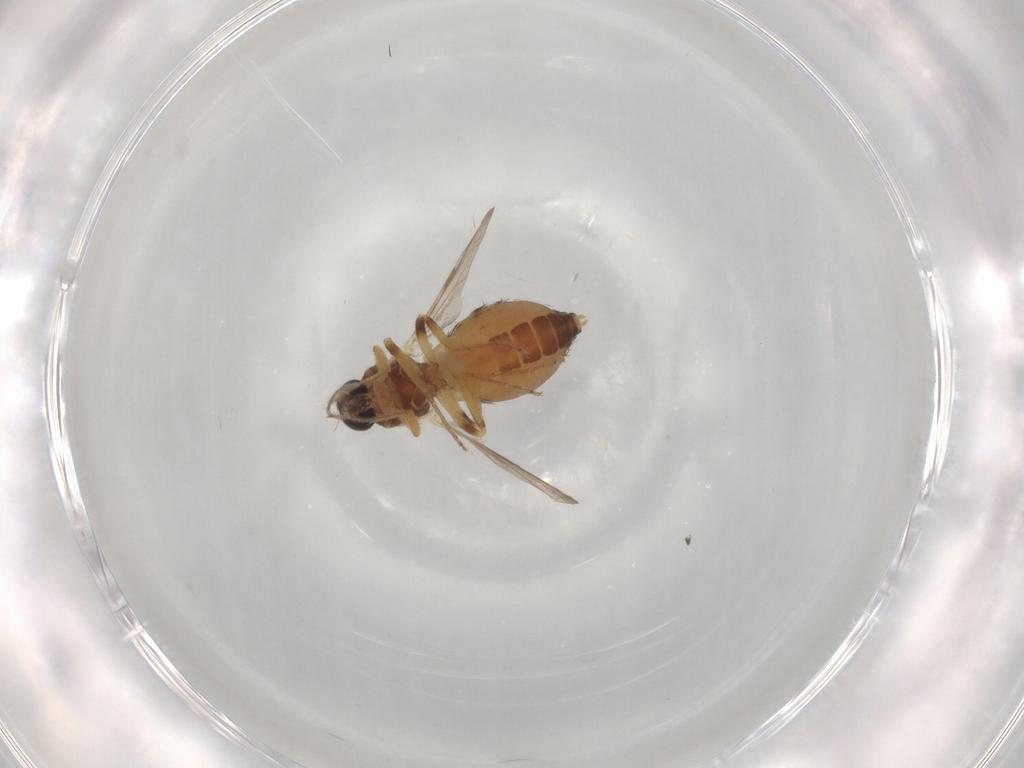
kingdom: Animalia
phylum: Arthropoda
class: Insecta
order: Diptera
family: Ceratopogonidae
